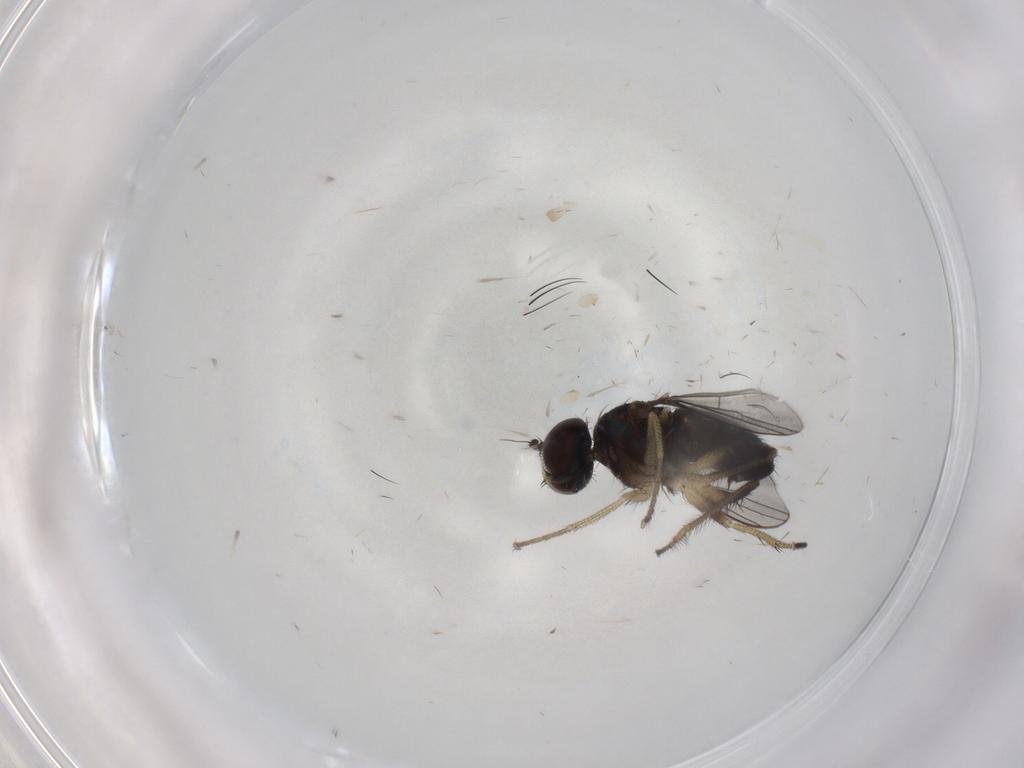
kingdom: Animalia
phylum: Arthropoda
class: Insecta
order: Diptera
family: Dolichopodidae
